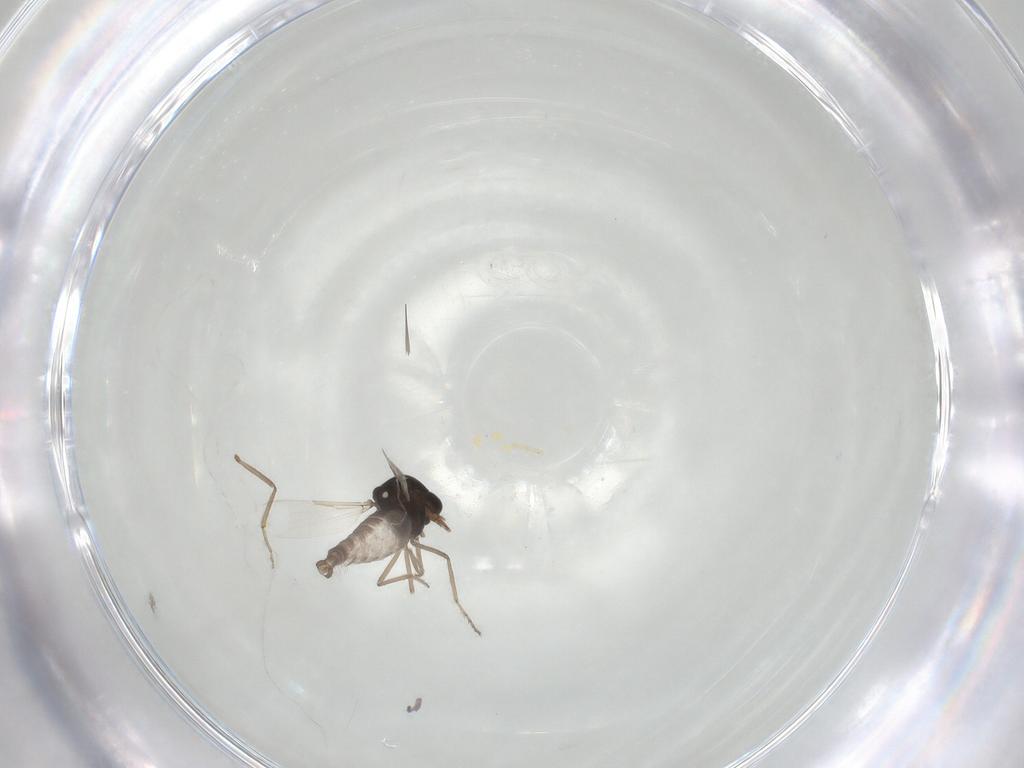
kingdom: Animalia
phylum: Arthropoda
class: Insecta
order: Diptera
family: Ceratopogonidae
